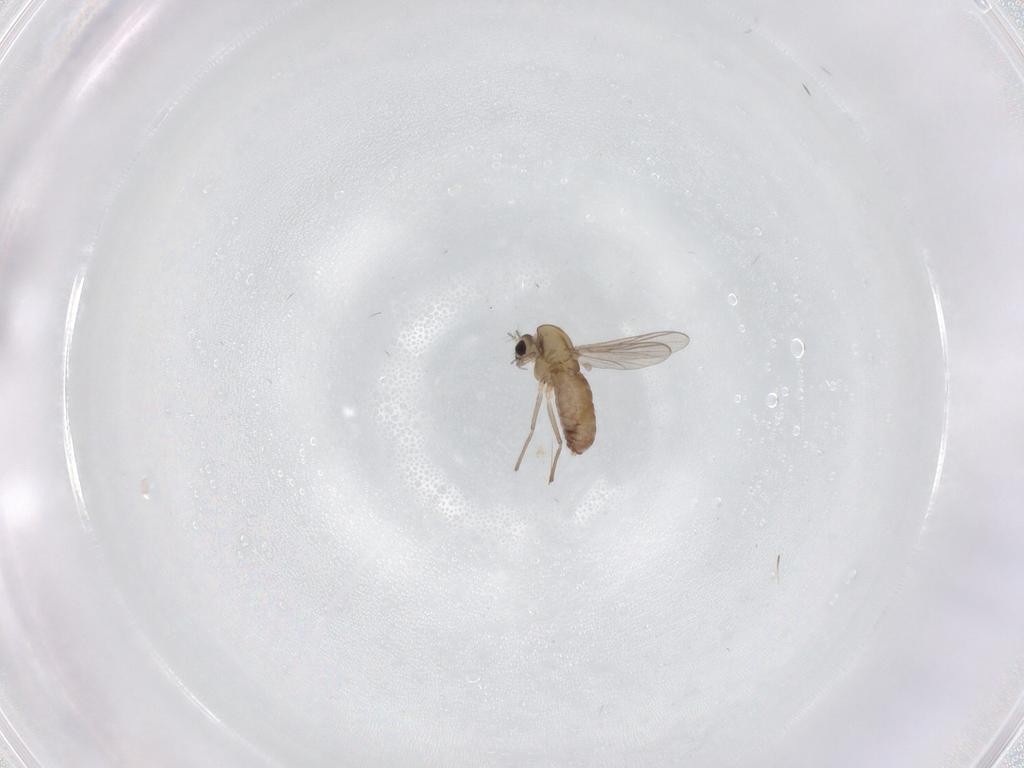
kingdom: Animalia
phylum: Arthropoda
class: Insecta
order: Diptera
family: Chironomidae
